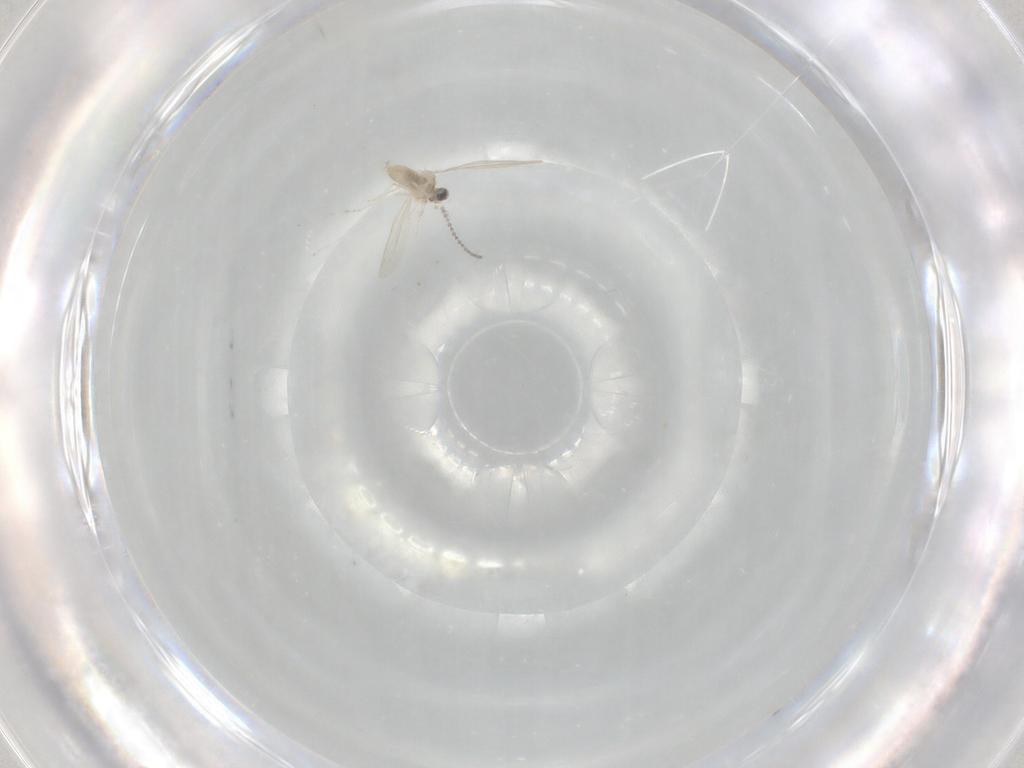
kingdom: Animalia
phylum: Arthropoda
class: Insecta
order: Diptera
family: Cecidomyiidae
